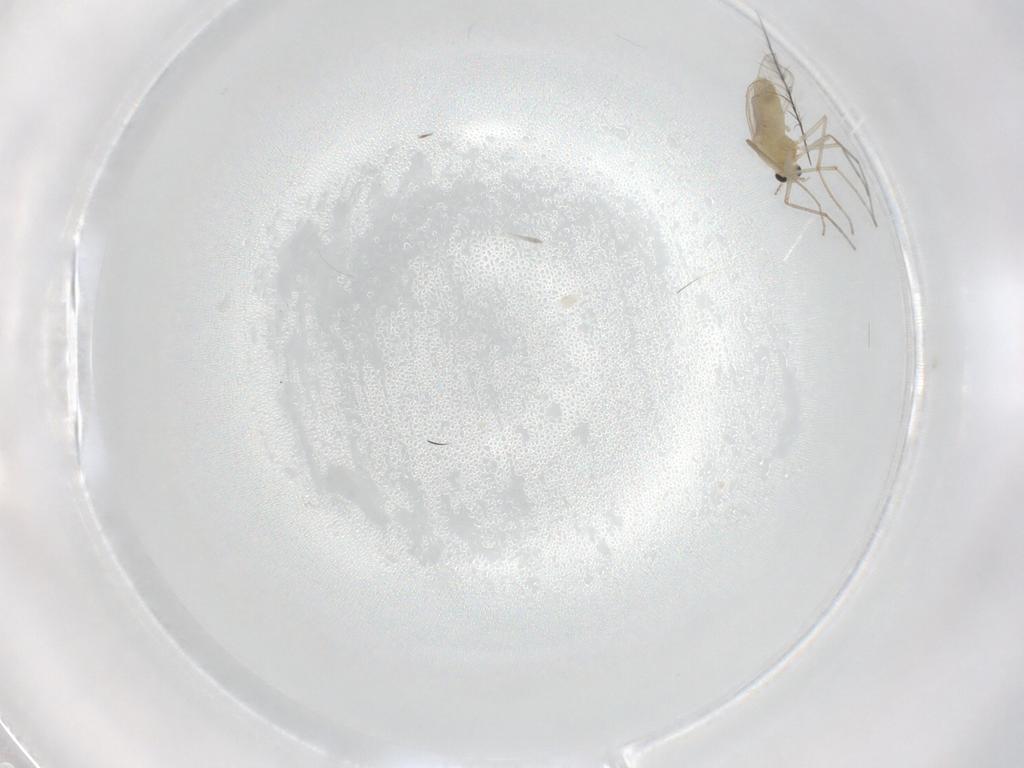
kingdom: Animalia
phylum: Arthropoda
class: Insecta
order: Diptera
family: Chironomidae
